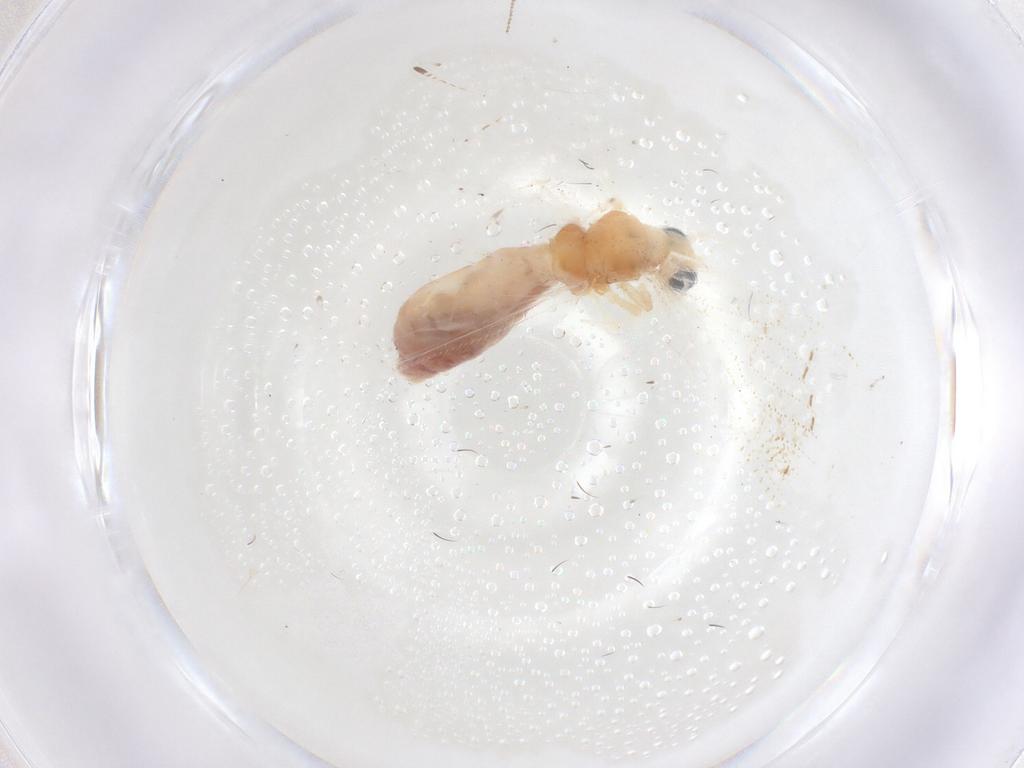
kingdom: Animalia
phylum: Arthropoda
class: Insecta
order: Neuroptera
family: Hemerobiidae
